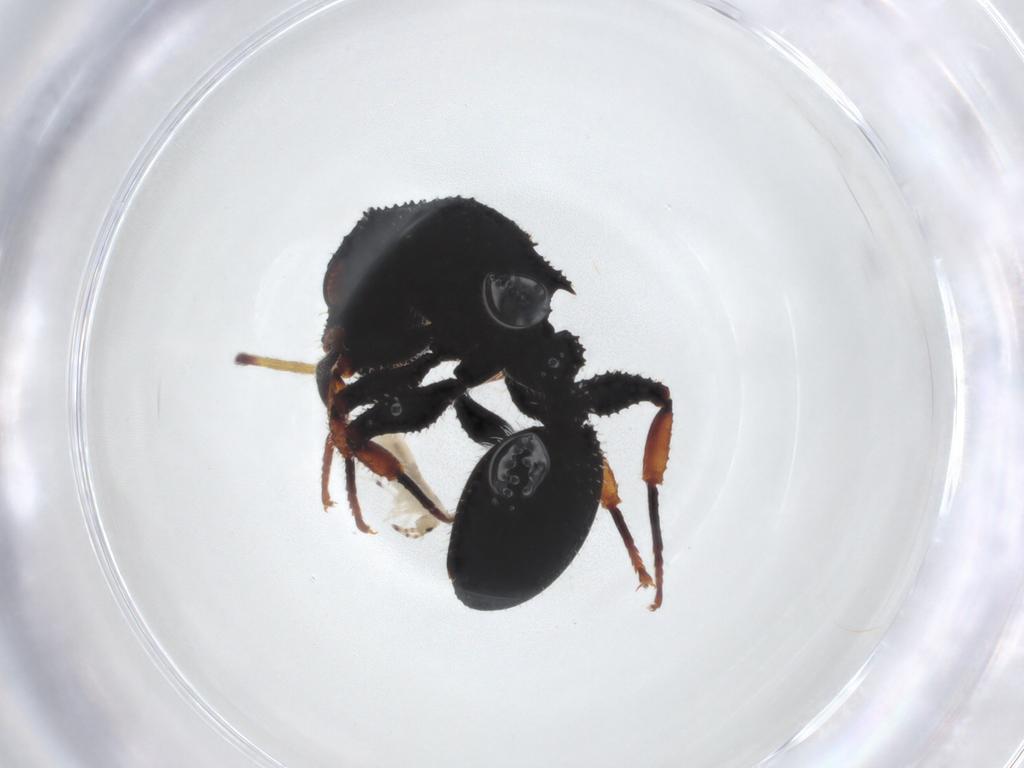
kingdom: Animalia
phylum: Arthropoda
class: Insecta
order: Hymenoptera
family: Formicidae
